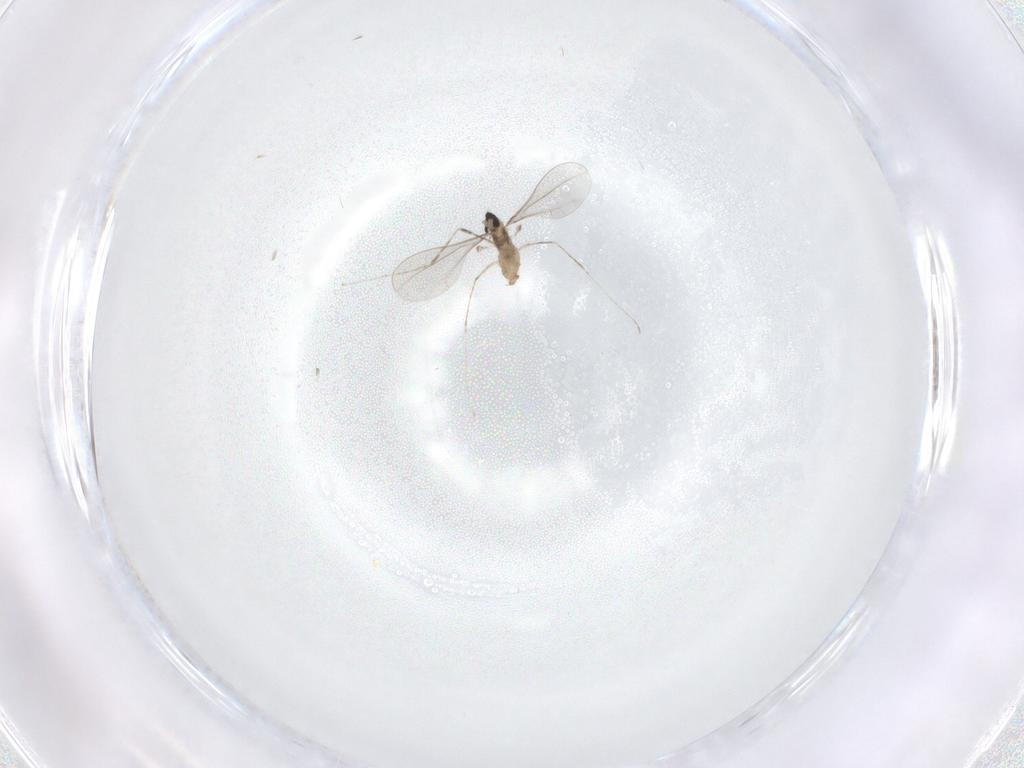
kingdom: Animalia
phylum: Arthropoda
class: Insecta
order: Diptera
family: Cecidomyiidae
